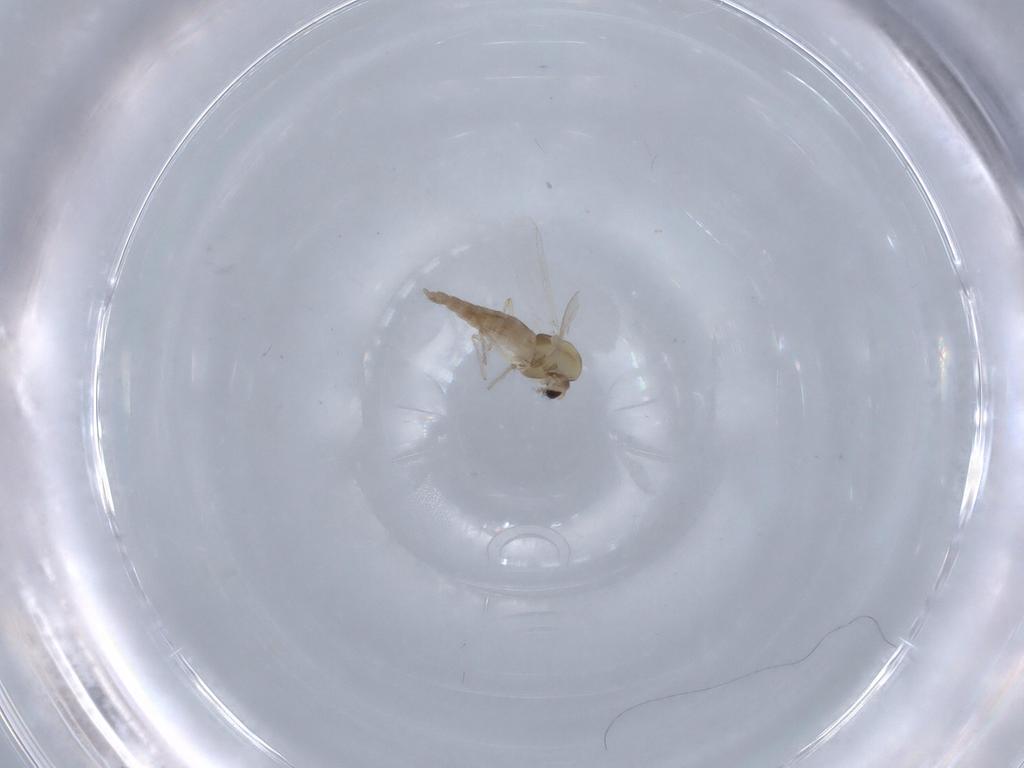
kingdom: Animalia
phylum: Arthropoda
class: Insecta
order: Diptera
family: Chironomidae
